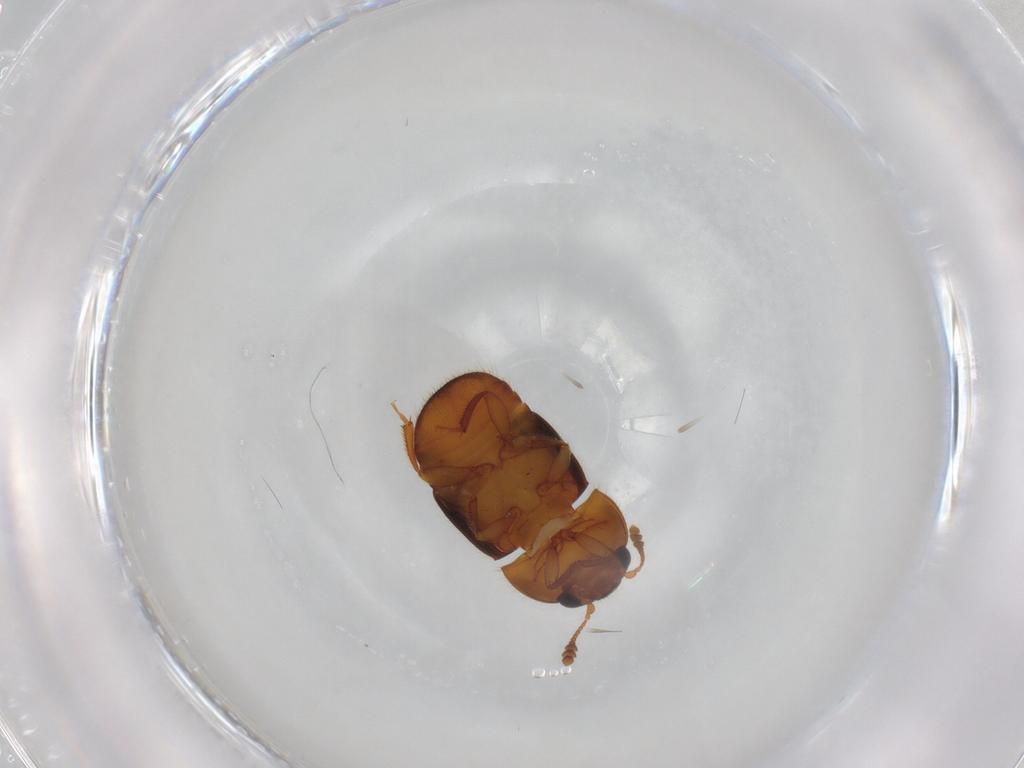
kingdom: Animalia
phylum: Arthropoda
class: Insecta
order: Coleoptera
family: Nitidulidae
